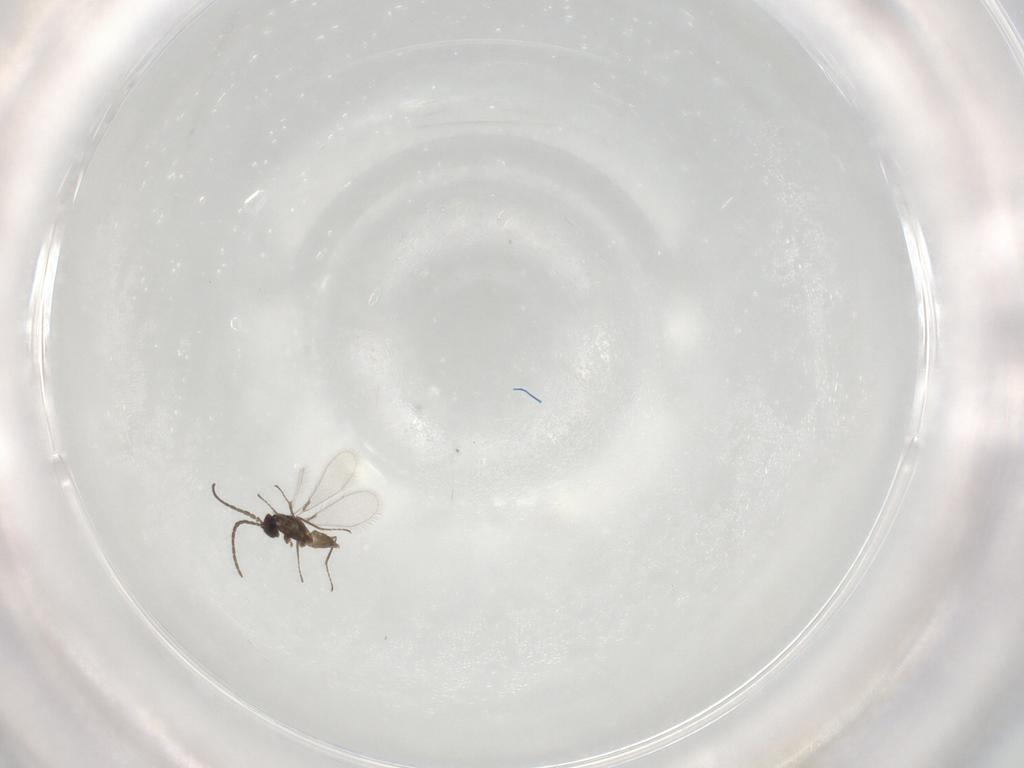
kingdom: Animalia
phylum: Arthropoda
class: Insecta
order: Hymenoptera
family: Mymaridae
